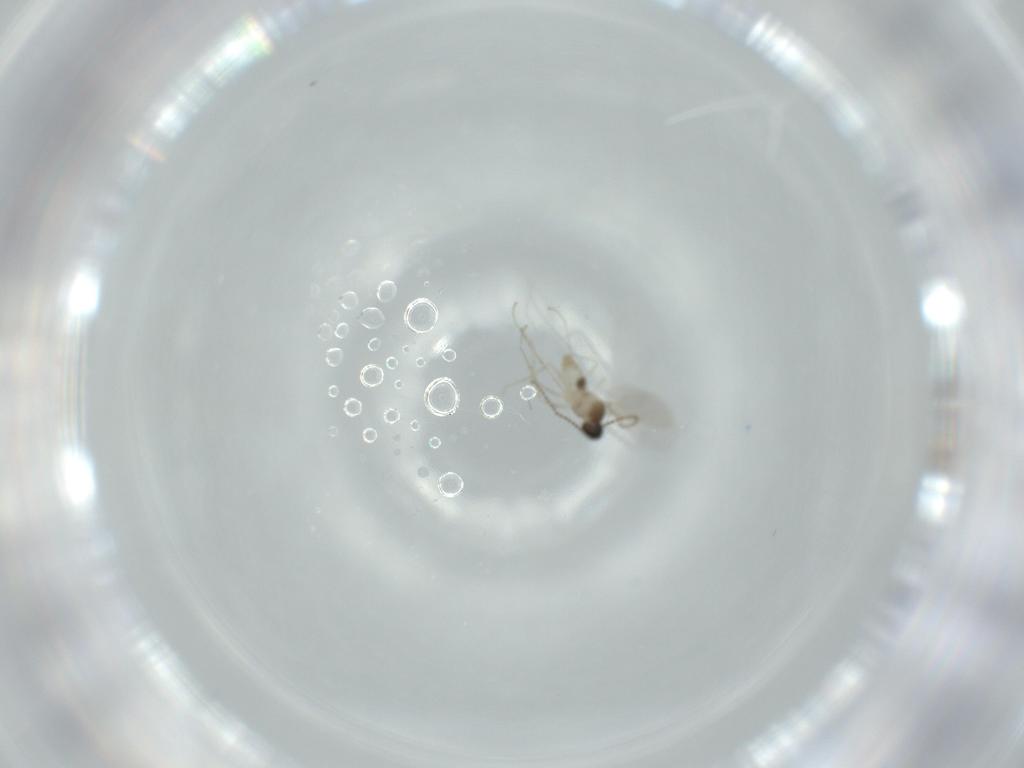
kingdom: Animalia
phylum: Arthropoda
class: Insecta
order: Diptera
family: Cecidomyiidae
